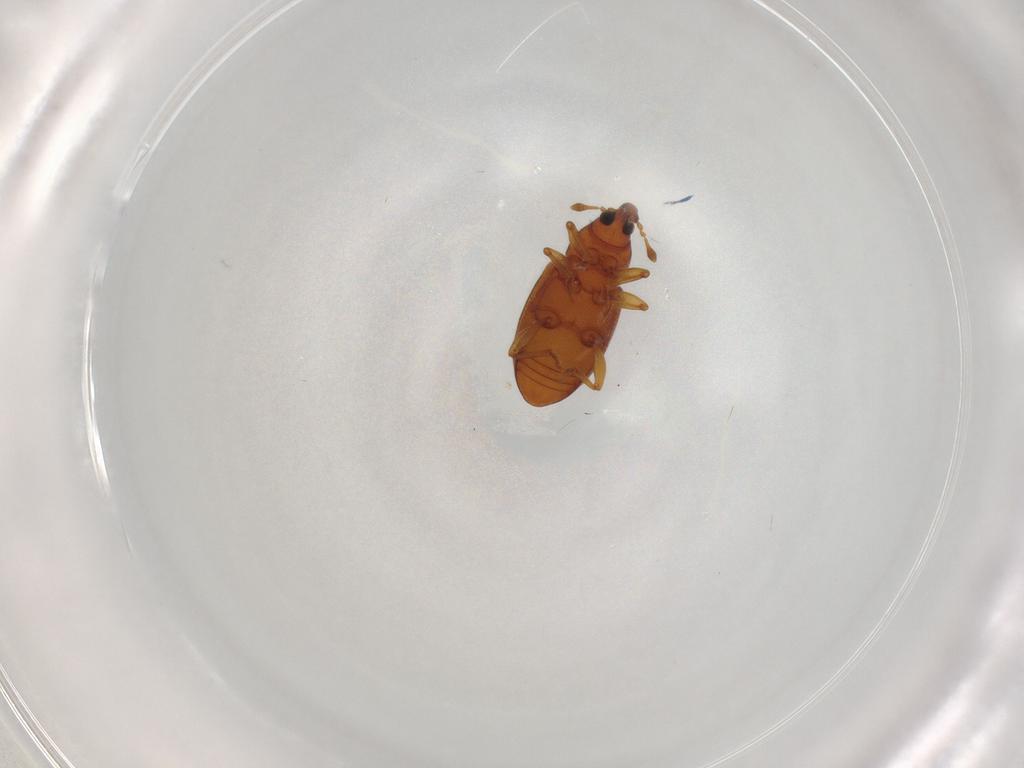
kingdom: Animalia
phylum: Arthropoda
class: Insecta
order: Coleoptera
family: Curculionidae
